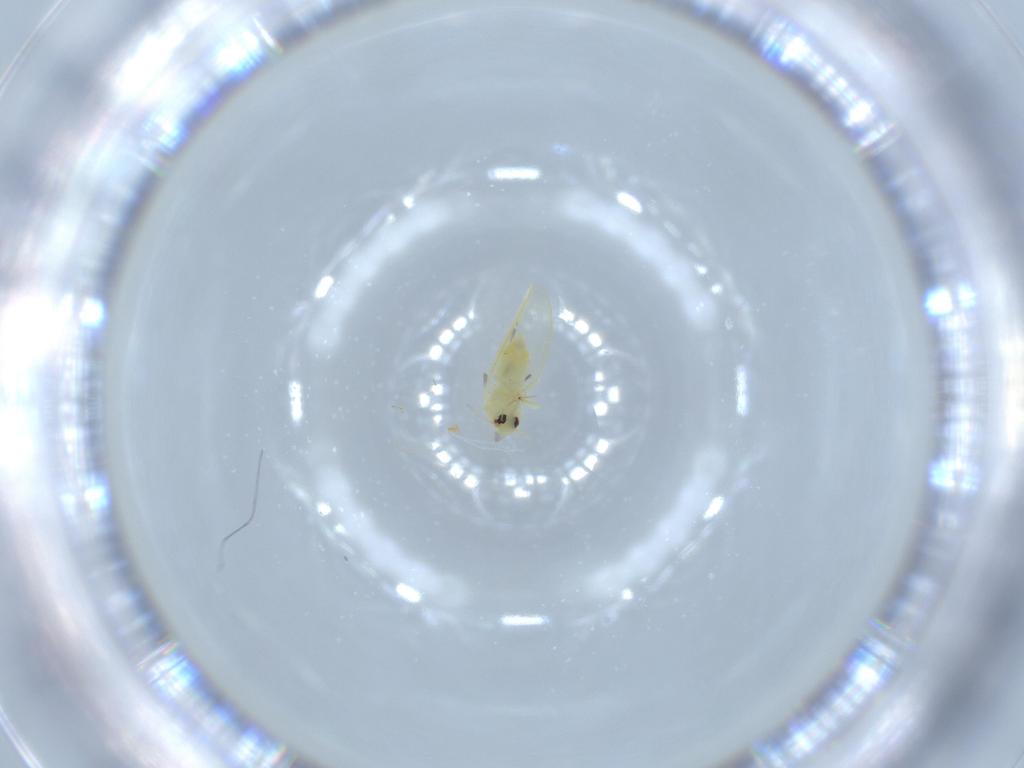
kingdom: Animalia
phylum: Arthropoda
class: Insecta
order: Hemiptera
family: Aleyrodidae
